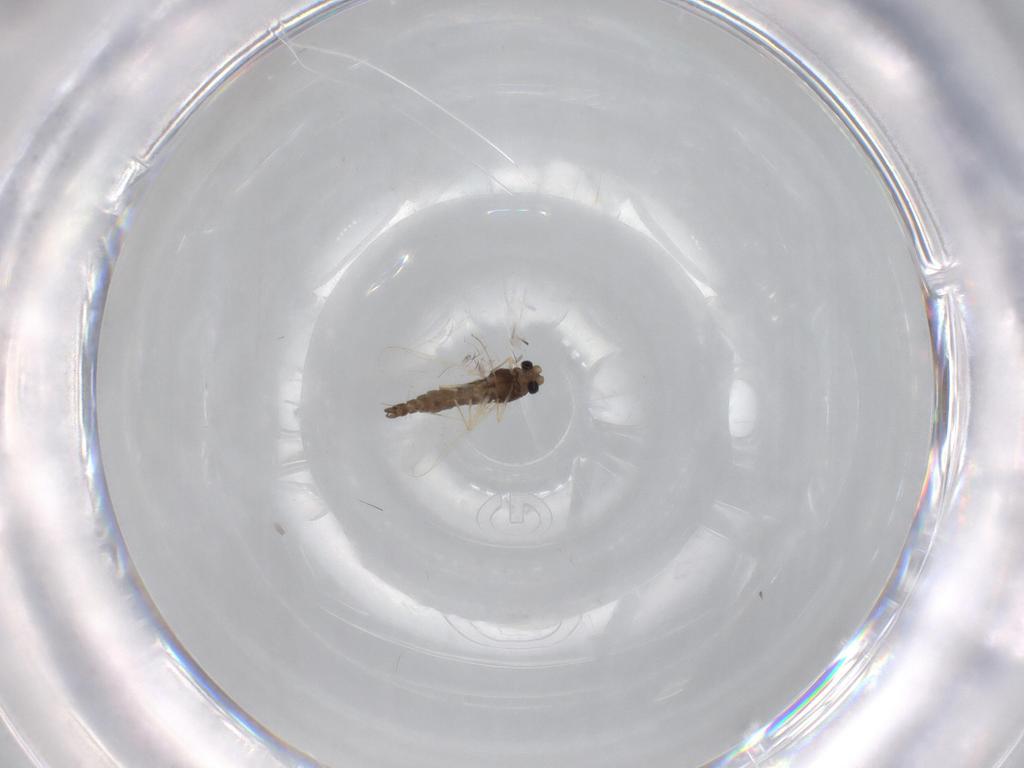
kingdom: Animalia
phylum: Arthropoda
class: Insecta
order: Diptera
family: Chironomidae
